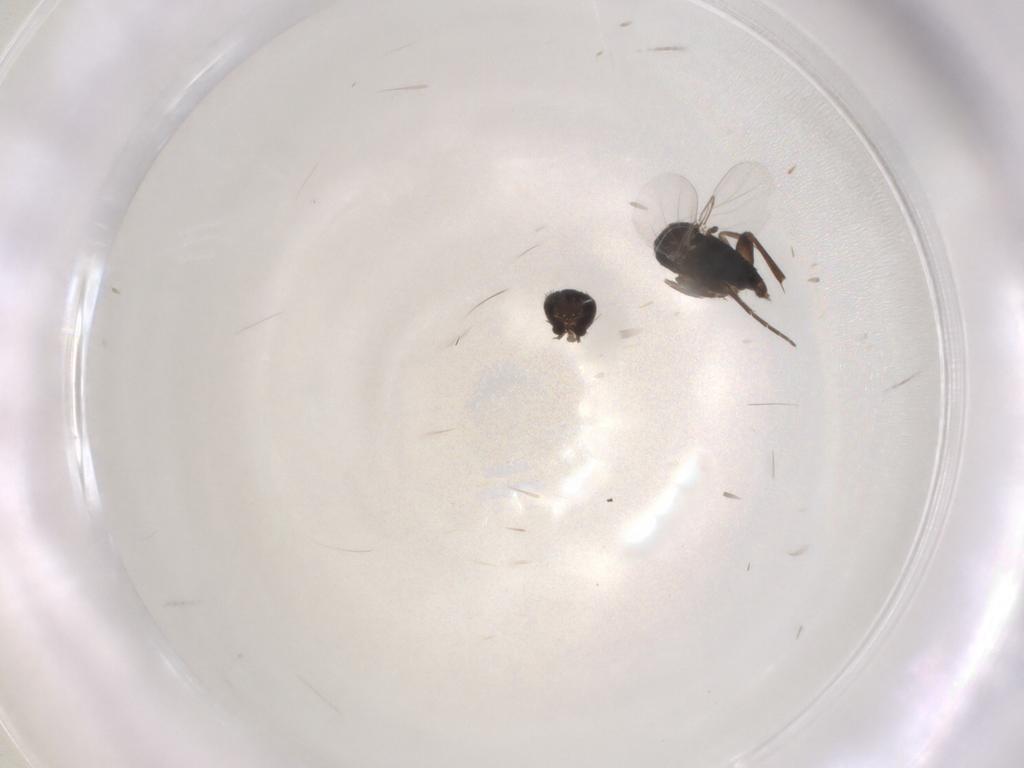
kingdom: Animalia
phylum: Arthropoda
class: Insecta
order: Diptera
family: Phoridae
